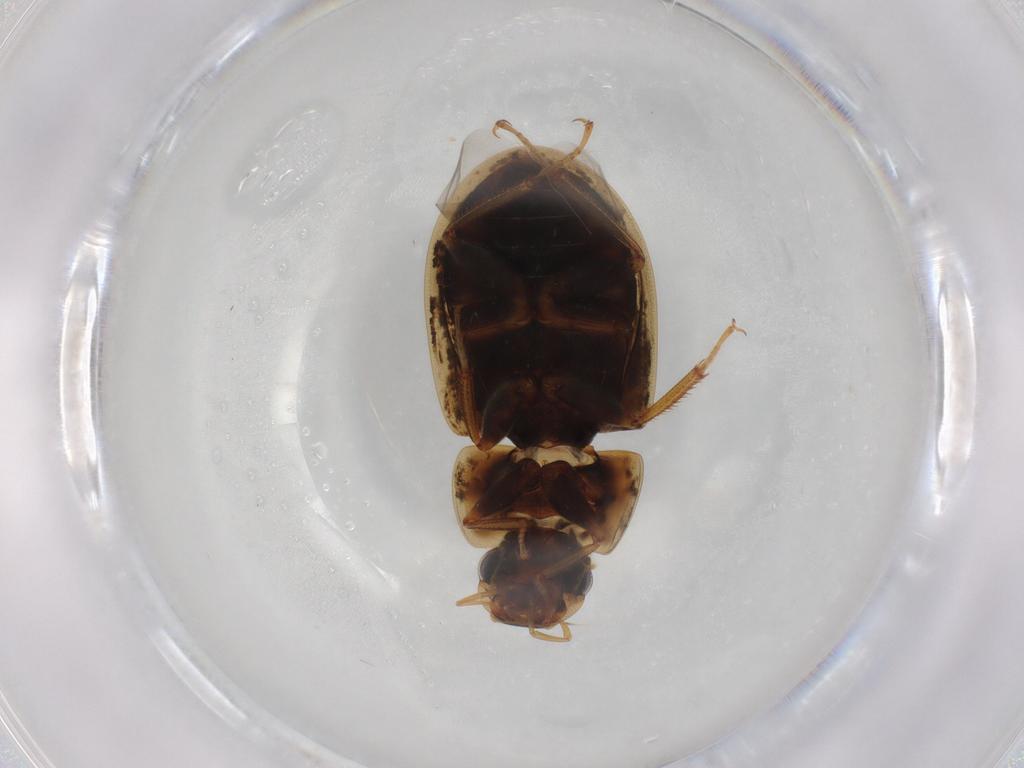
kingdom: Animalia
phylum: Arthropoda
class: Insecta
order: Coleoptera
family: Hydrophilidae
